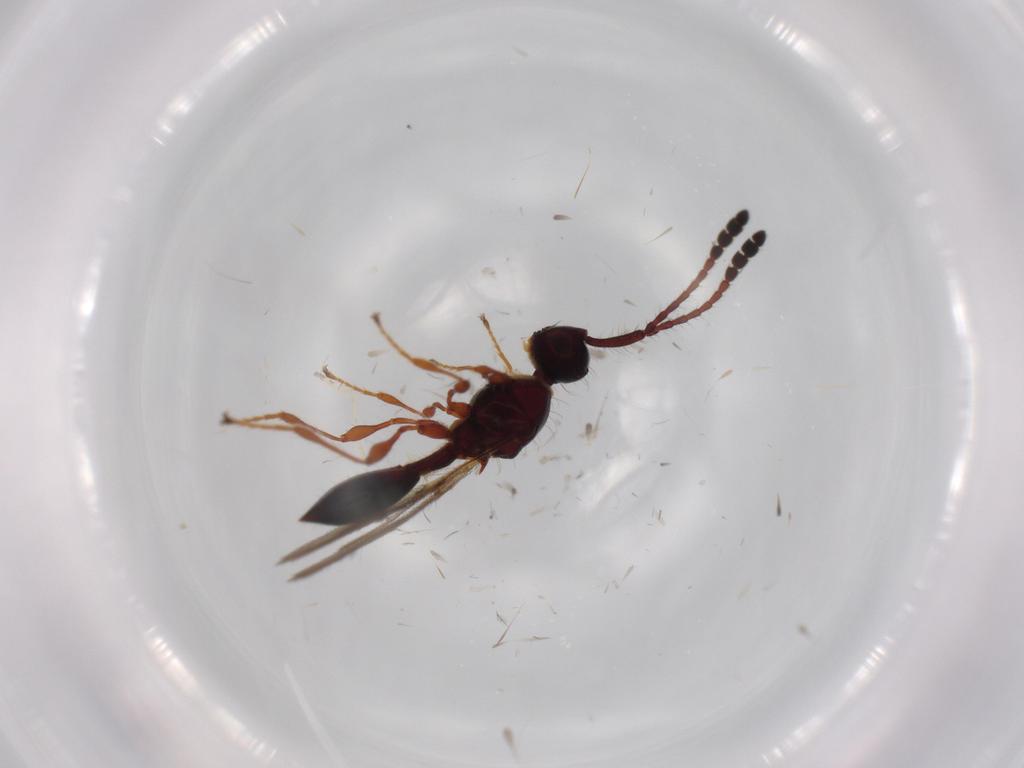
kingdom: Animalia
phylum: Arthropoda
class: Insecta
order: Hymenoptera
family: Diapriidae
